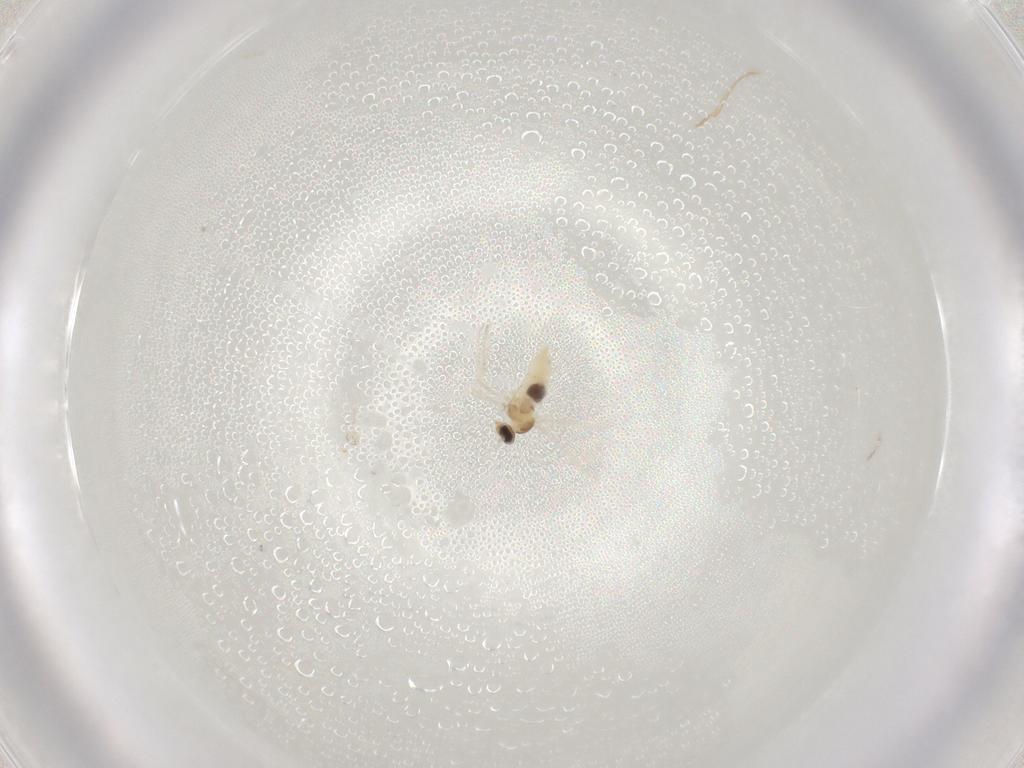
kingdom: Animalia
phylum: Arthropoda
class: Insecta
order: Diptera
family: Cecidomyiidae
